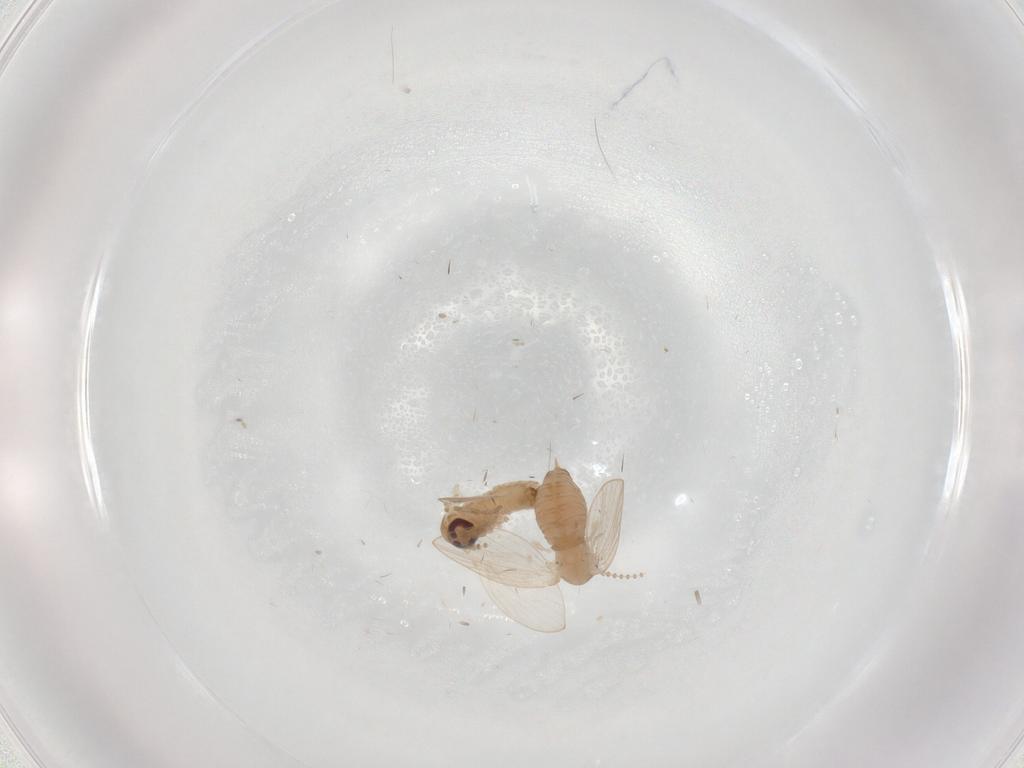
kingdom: Animalia
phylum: Arthropoda
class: Insecta
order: Diptera
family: Psychodidae
